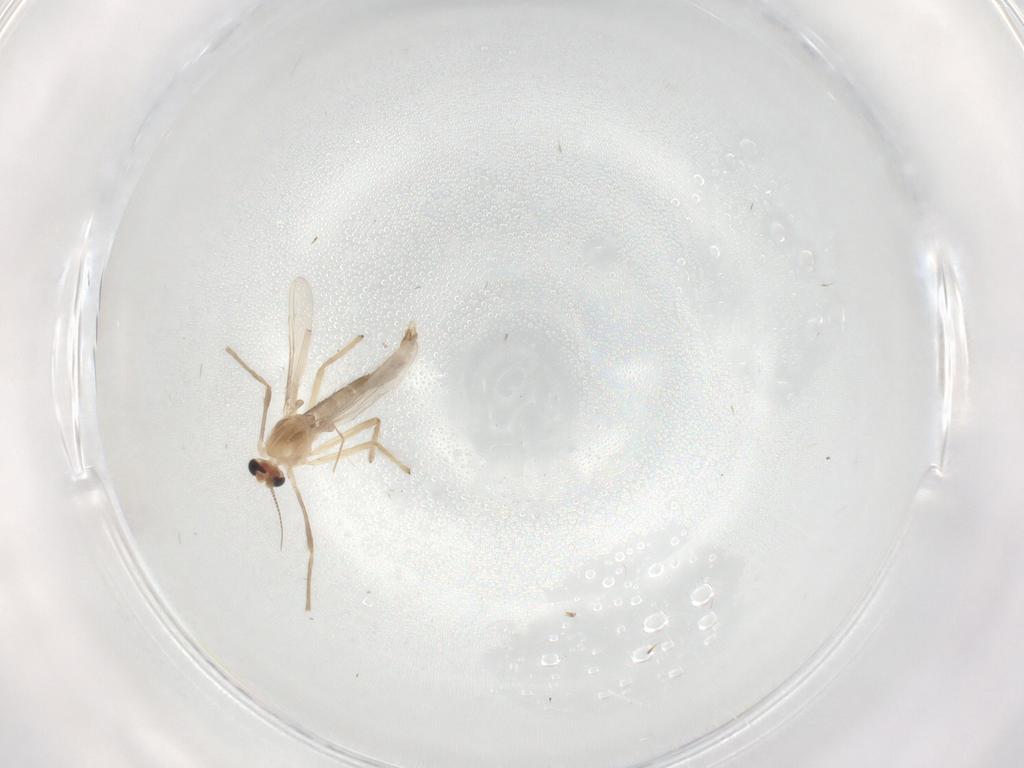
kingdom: Animalia
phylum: Arthropoda
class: Insecta
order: Diptera
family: Chironomidae
